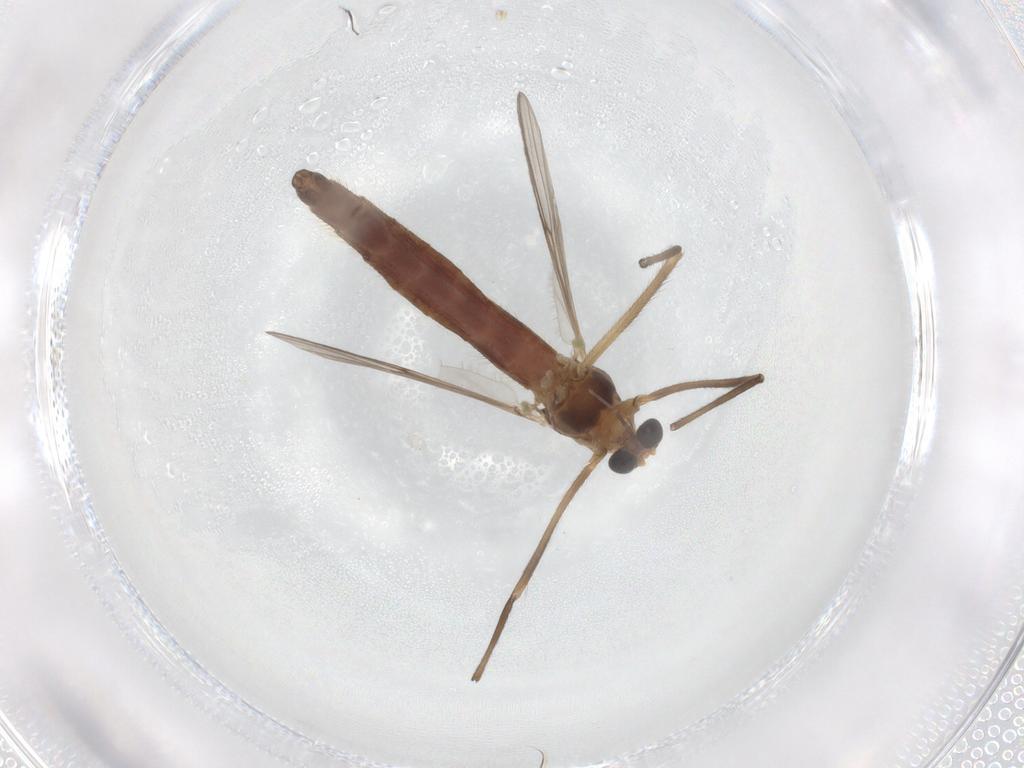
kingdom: Animalia
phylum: Arthropoda
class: Insecta
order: Diptera
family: Chironomidae
